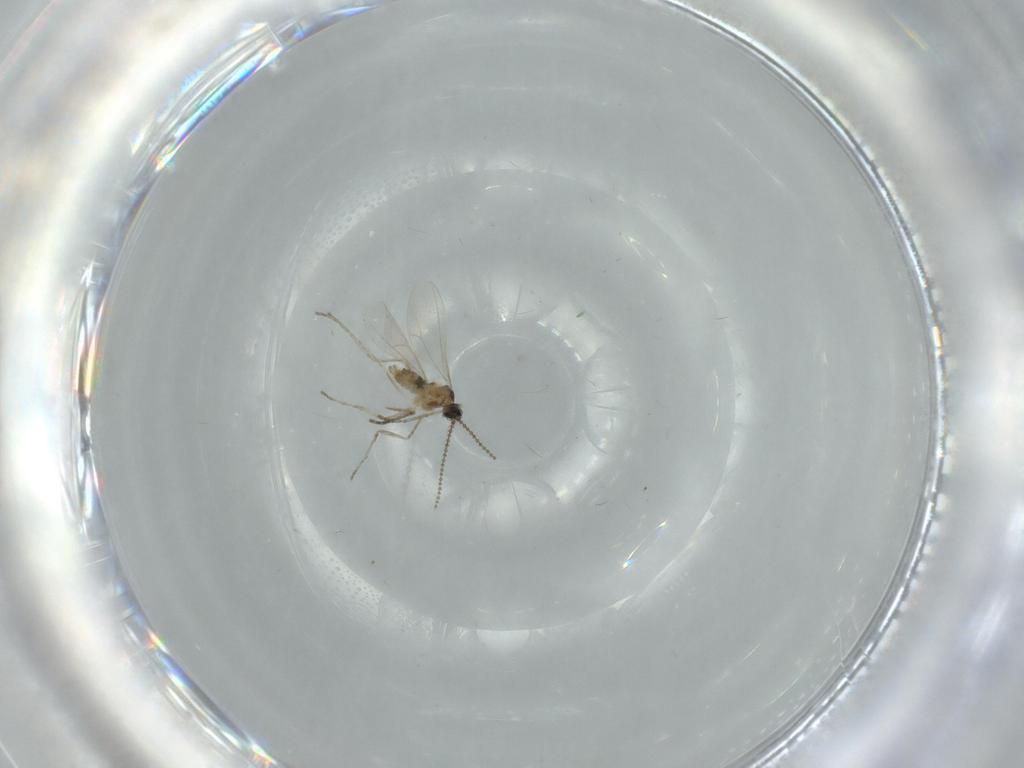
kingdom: Animalia
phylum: Arthropoda
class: Insecta
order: Diptera
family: Cecidomyiidae
